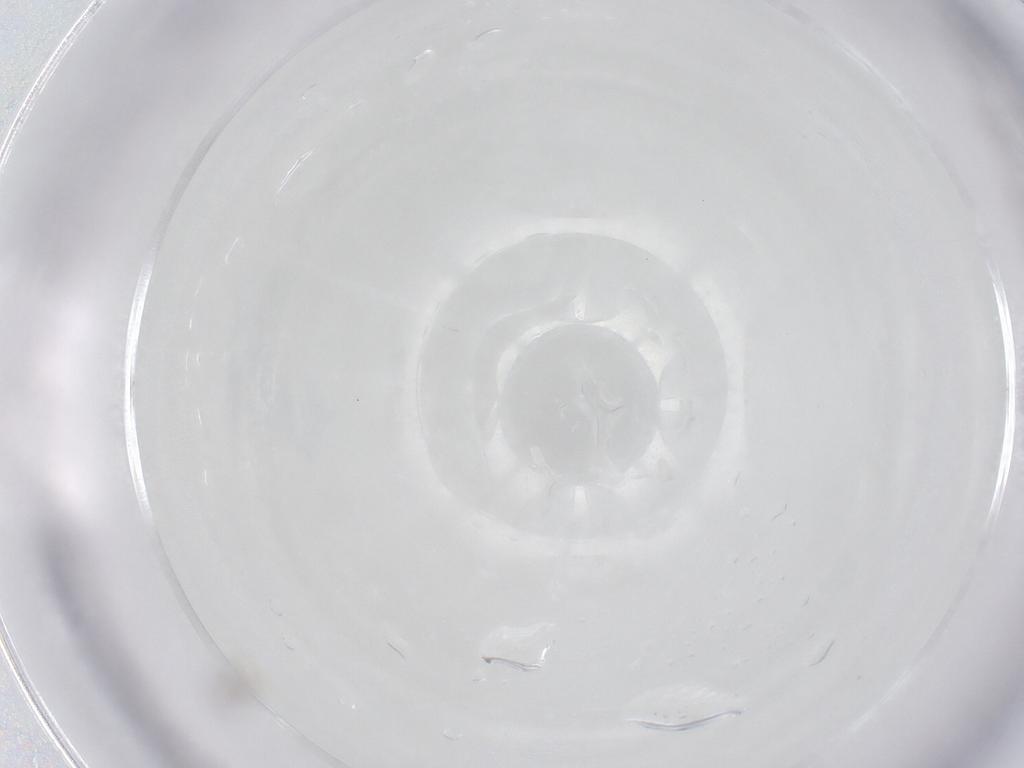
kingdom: Animalia
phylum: Arthropoda
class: Insecta
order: Hymenoptera
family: Mymaridae
